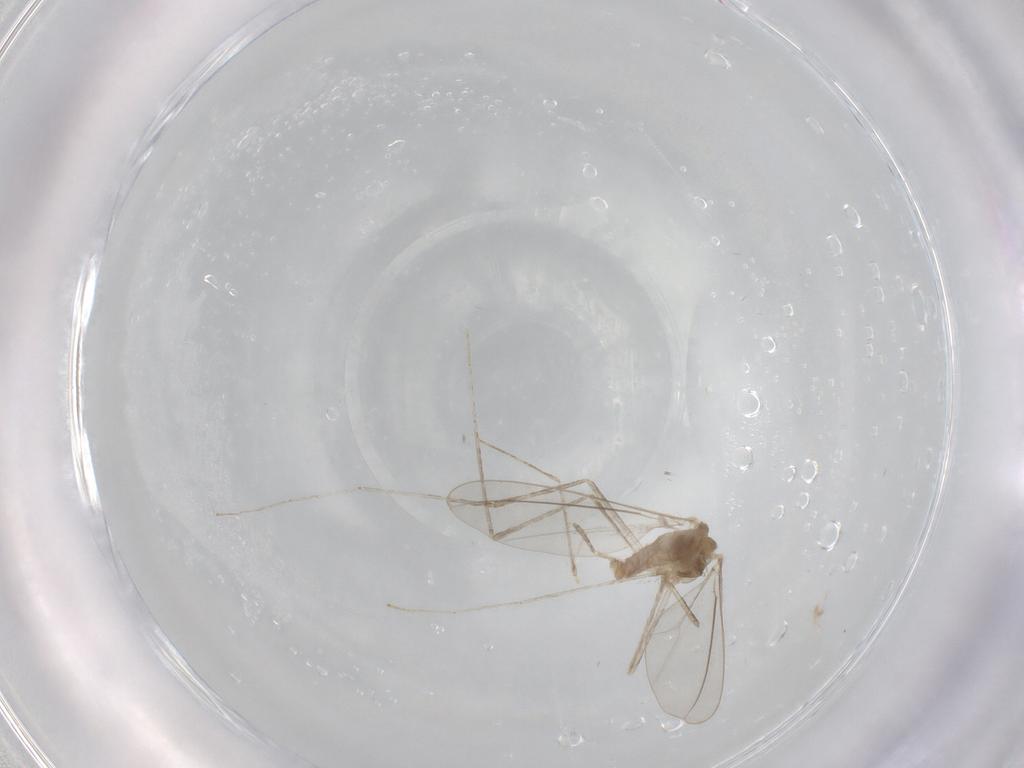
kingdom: Animalia
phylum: Arthropoda
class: Insecta
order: Diptera
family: Cecidomyiidae
